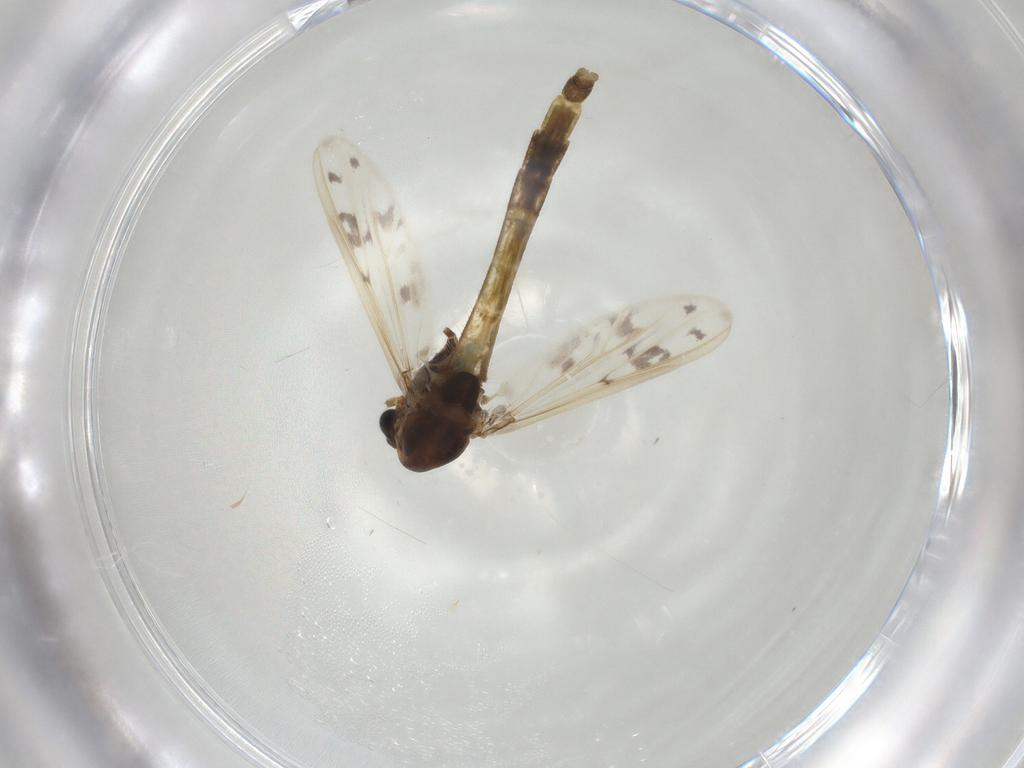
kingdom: Animalia
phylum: Arthropoda
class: Insecta
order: Diptera
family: Chironomidae
